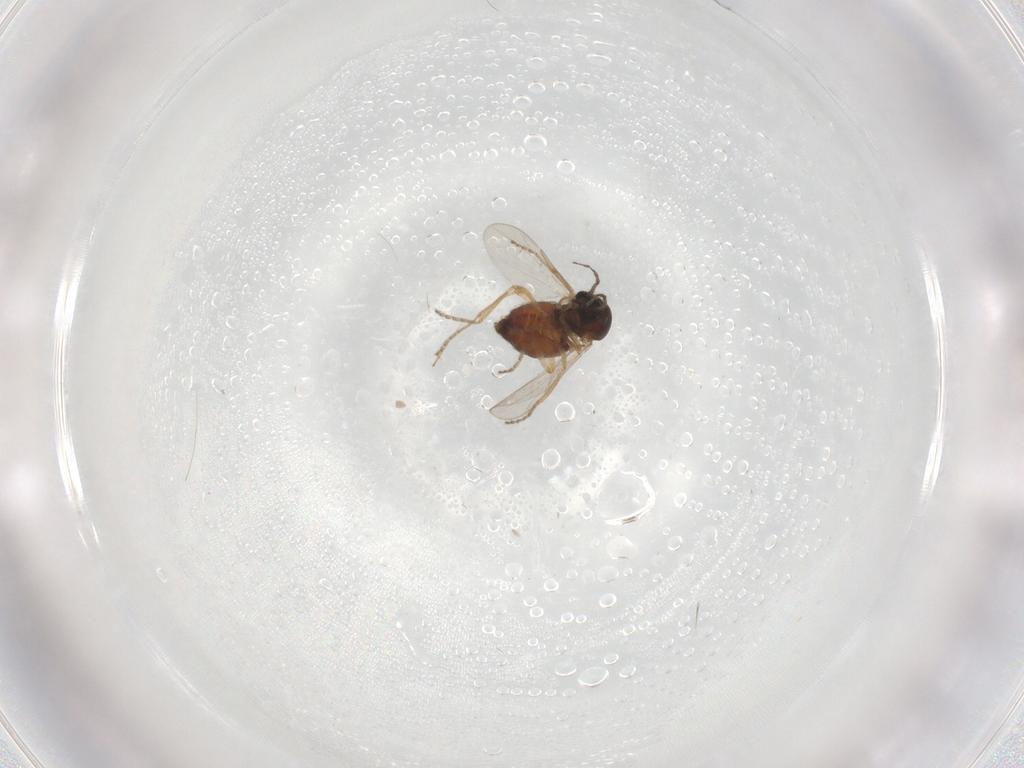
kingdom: Animalia
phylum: Arthropoda
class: Insecta
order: Diptera
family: Ceratopogonidae
